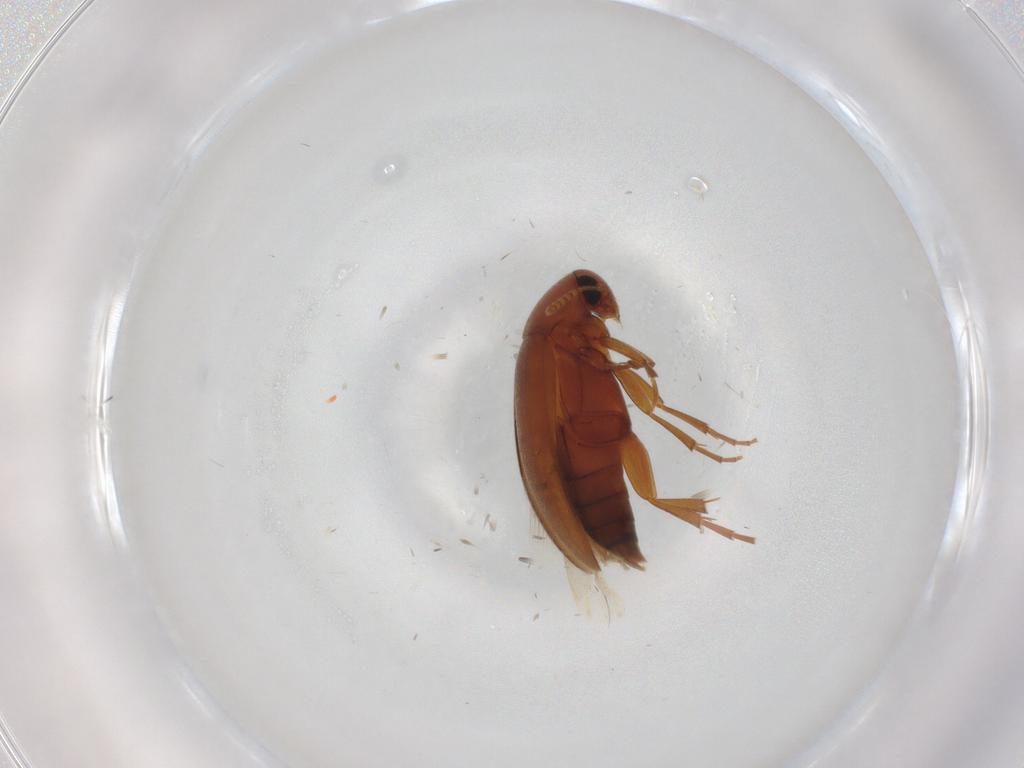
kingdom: Animalia
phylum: Arthropoda
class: Insecta
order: Coleoptera
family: Scraptiidae
